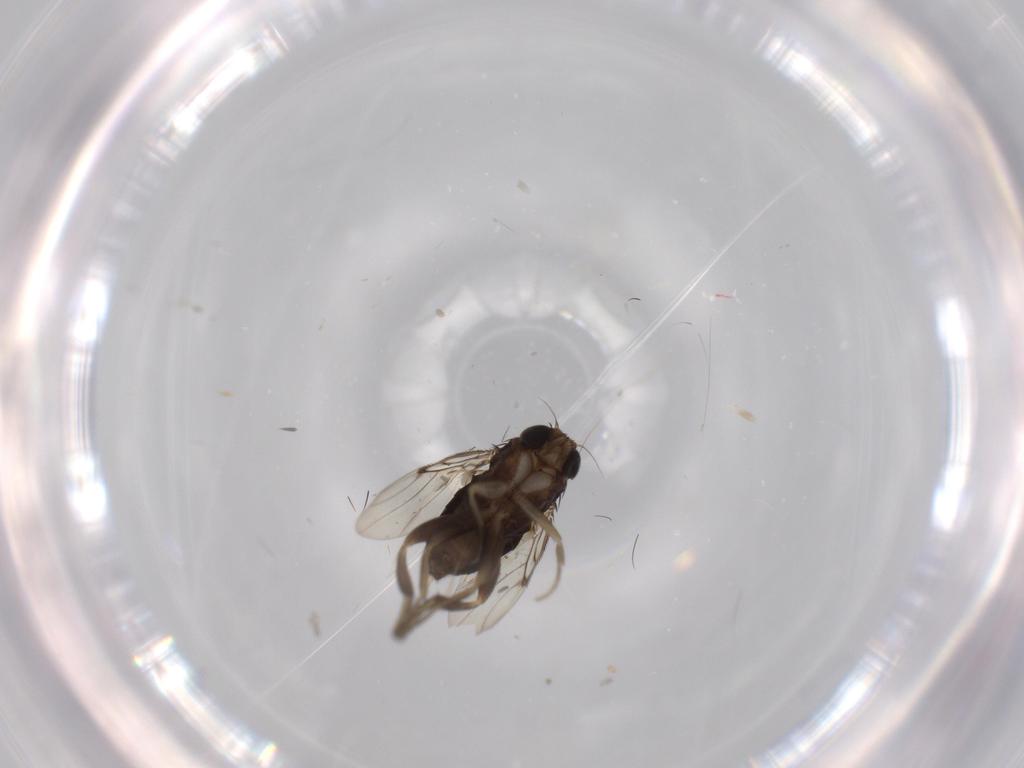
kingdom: Animalia
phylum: Arthropoda
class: Insecta
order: Diptera
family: Phoridae
